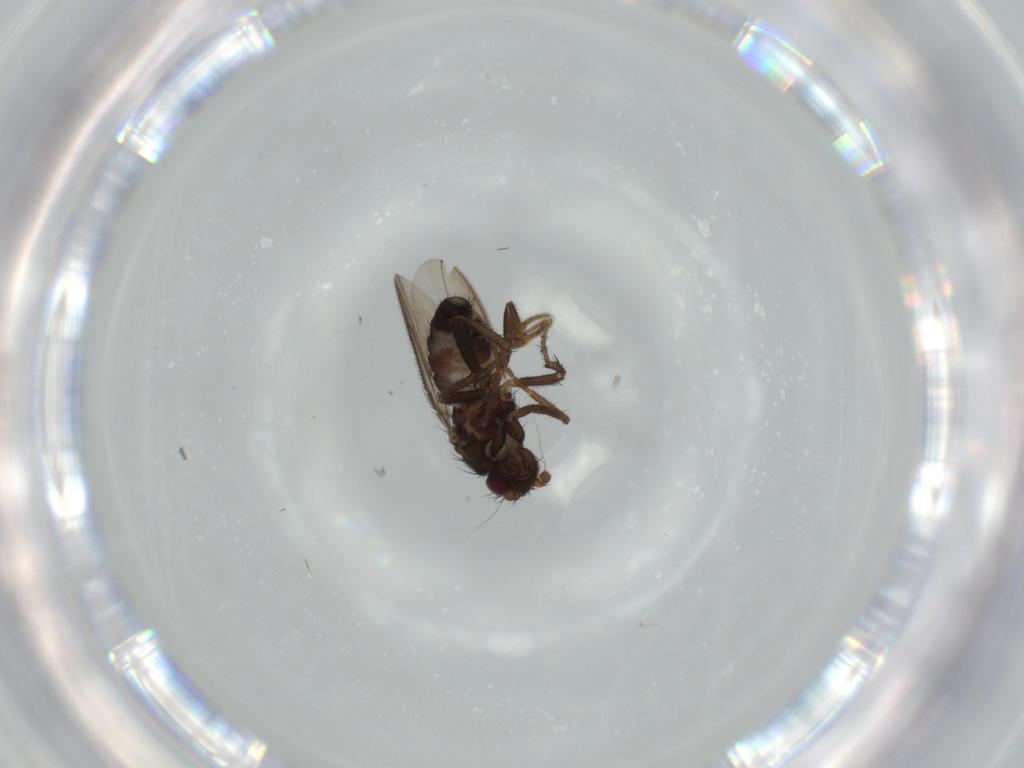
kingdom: Animalia
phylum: Arthropoda
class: Insecta
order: Diptera
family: Sphaeroceridae
